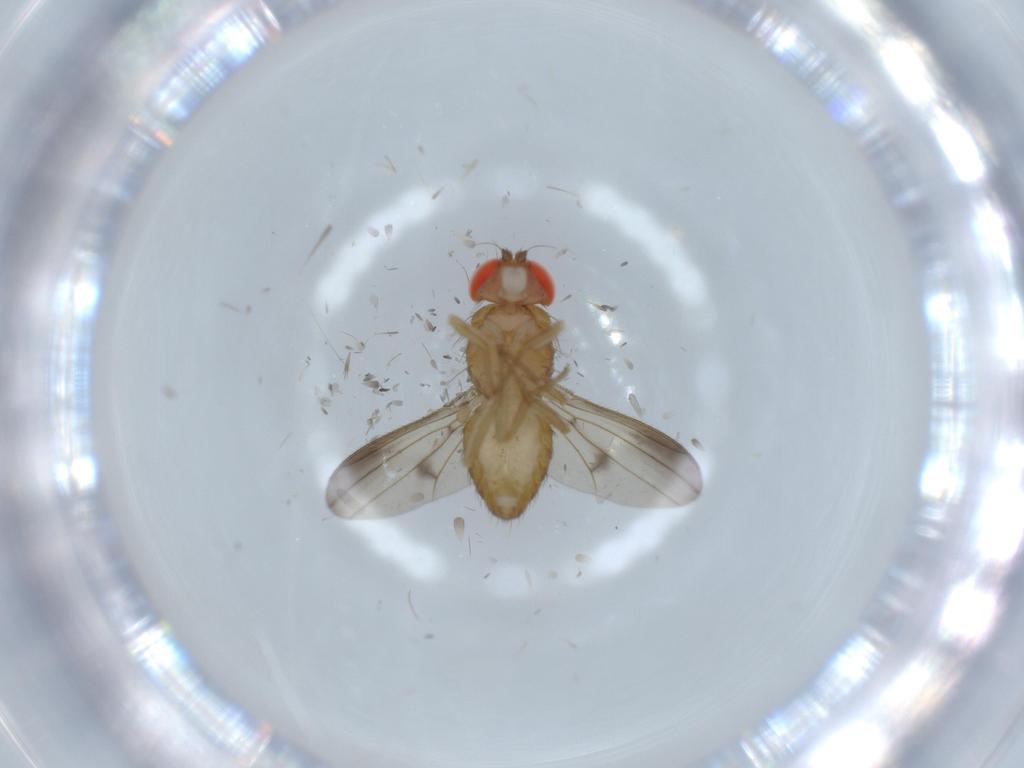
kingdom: Animalia
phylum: Arthropoda
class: Insecta
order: Diptera
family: Drosophilidae
